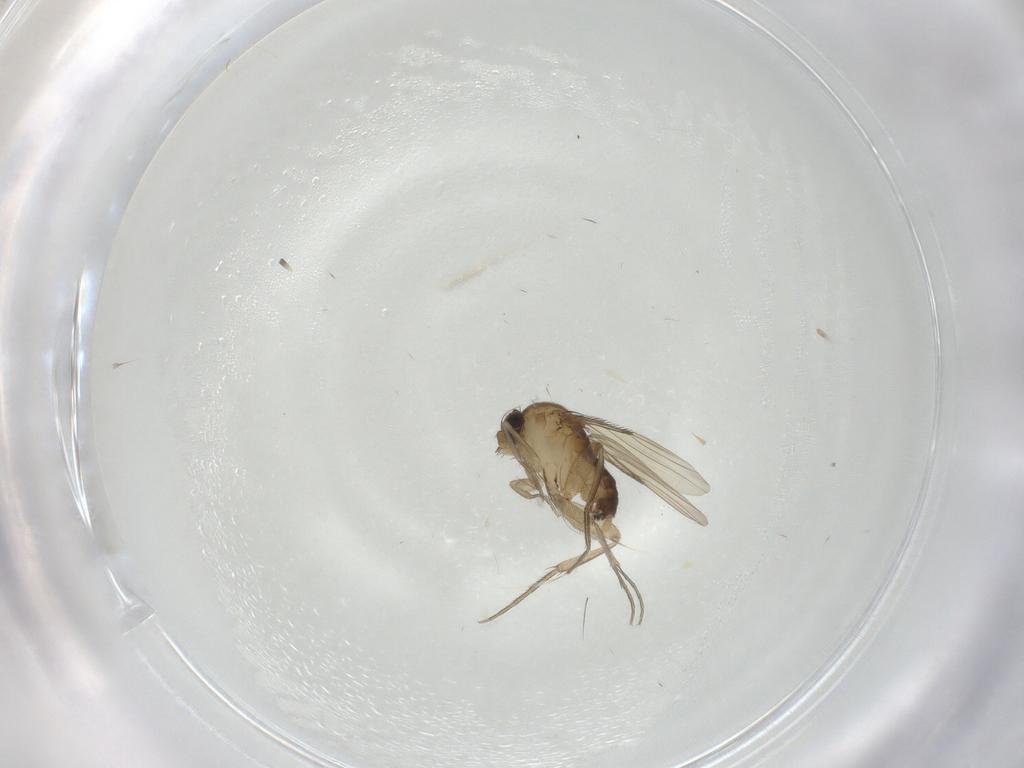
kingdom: Animalia
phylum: Arthropoda
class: Insecta
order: Diptera
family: Phoridae
